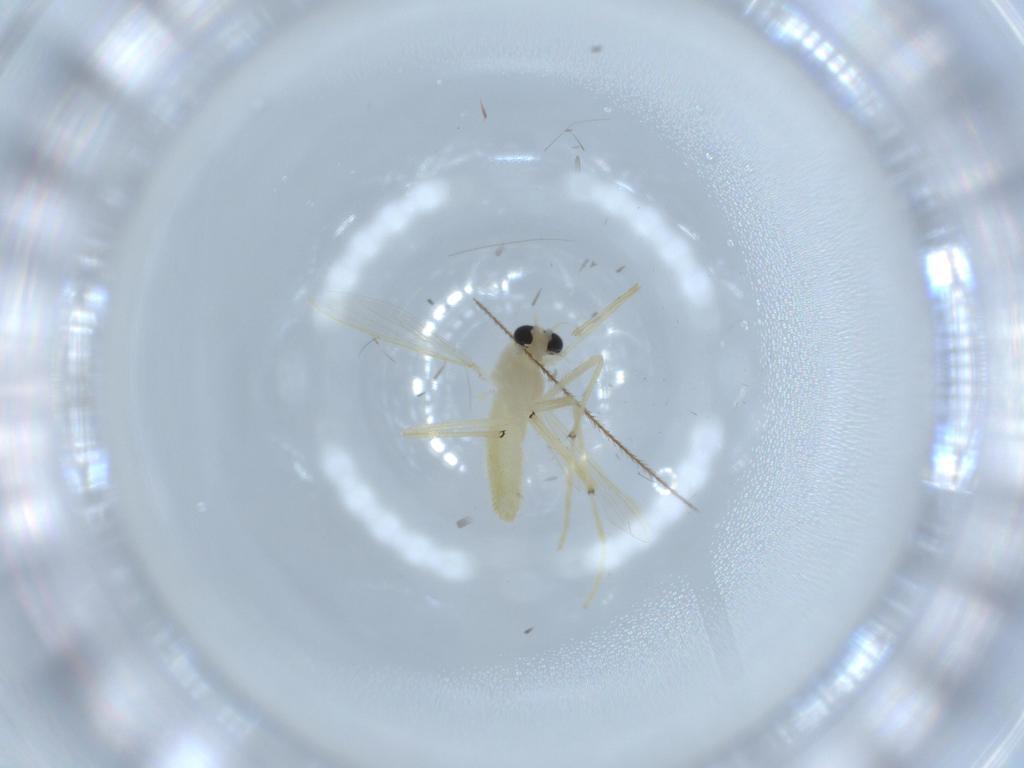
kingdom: Animalia
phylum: Arthropoda
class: Insecta
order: Diptera
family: Chironomidae
